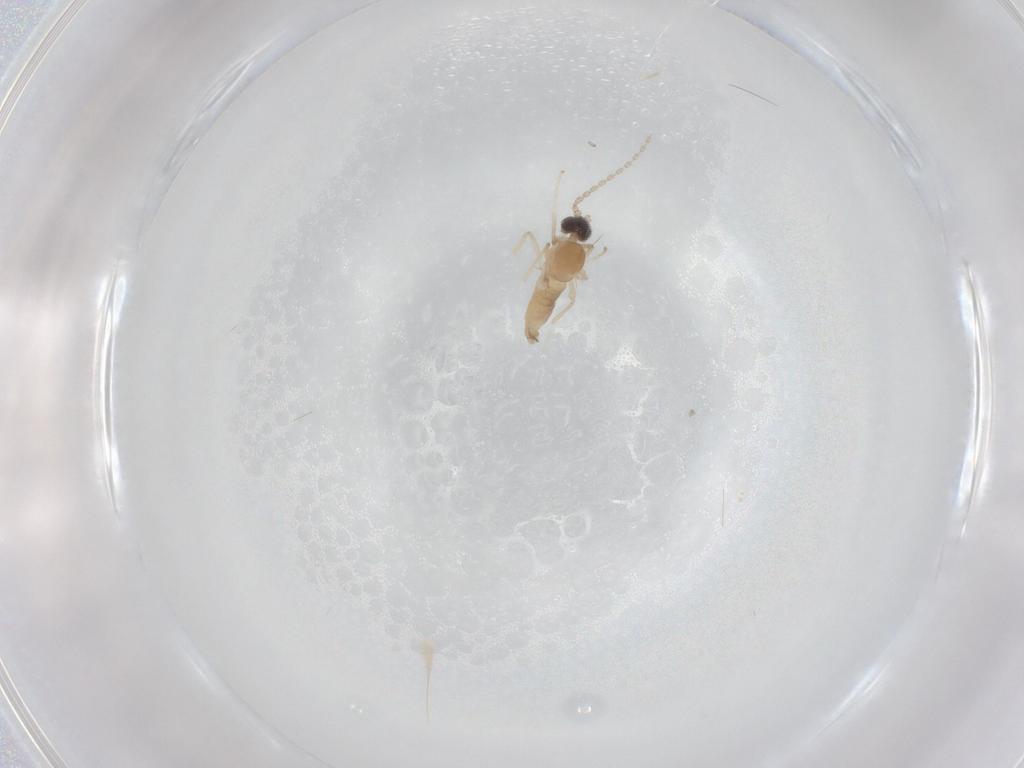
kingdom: Animalia
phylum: Arthropoda
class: Insecta
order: Diptera
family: Cecidomyiidae
